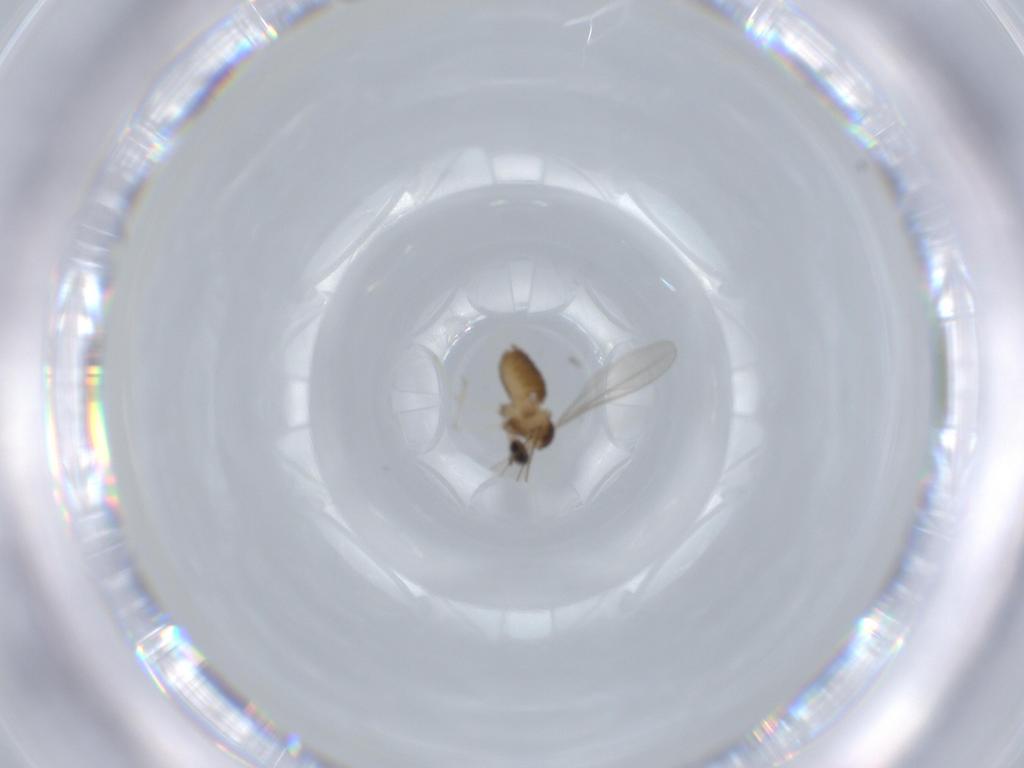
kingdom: Animalia
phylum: Arthropoda
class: Insecta
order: Diptera
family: Cecidomyiidae
